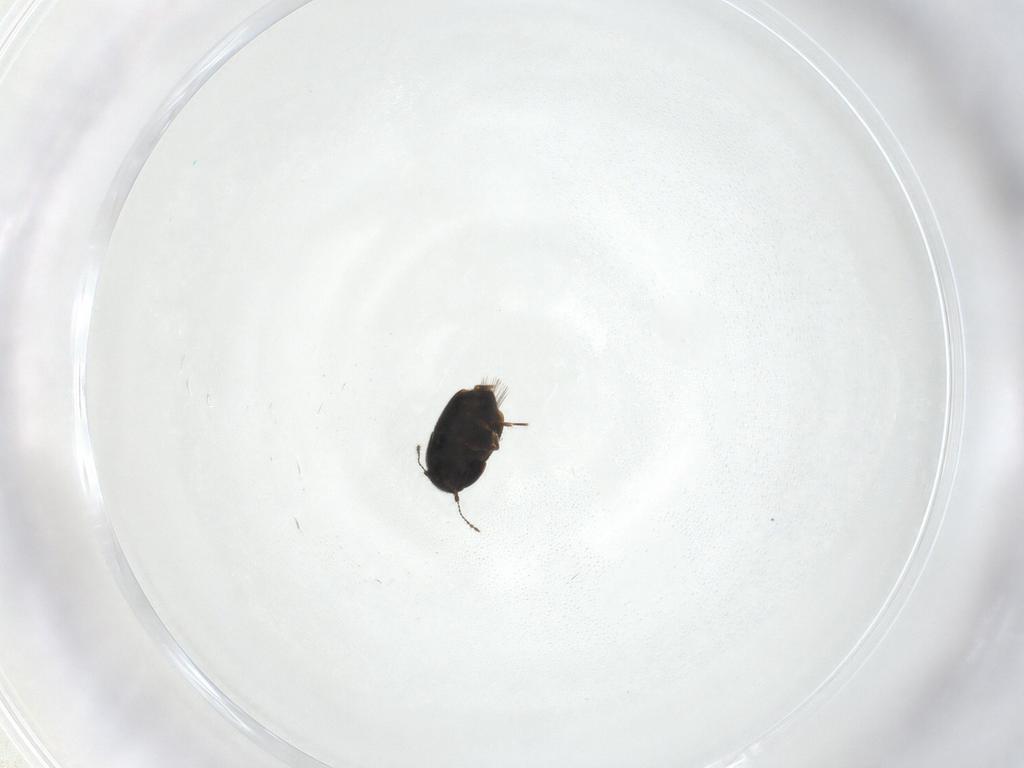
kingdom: Animalia
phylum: Arthropoda
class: Insecta
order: Coleoptera
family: Ptiliidae
